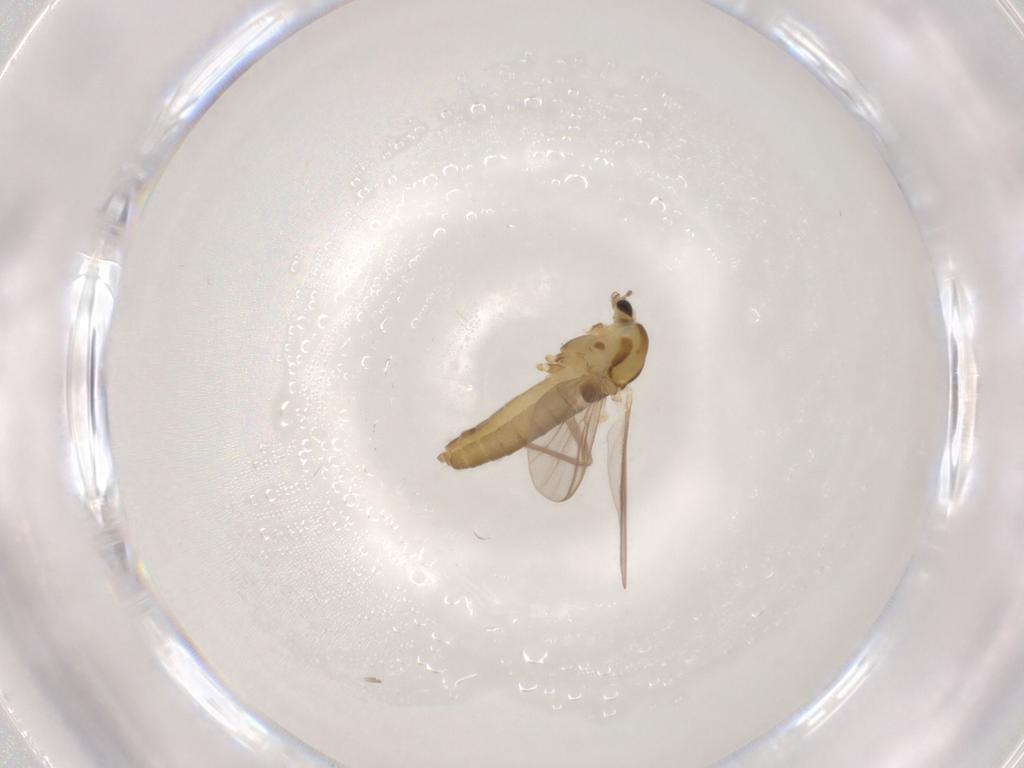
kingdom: Animalia
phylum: Arthropoda
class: Insecta
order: Diptera
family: Chironomidae
